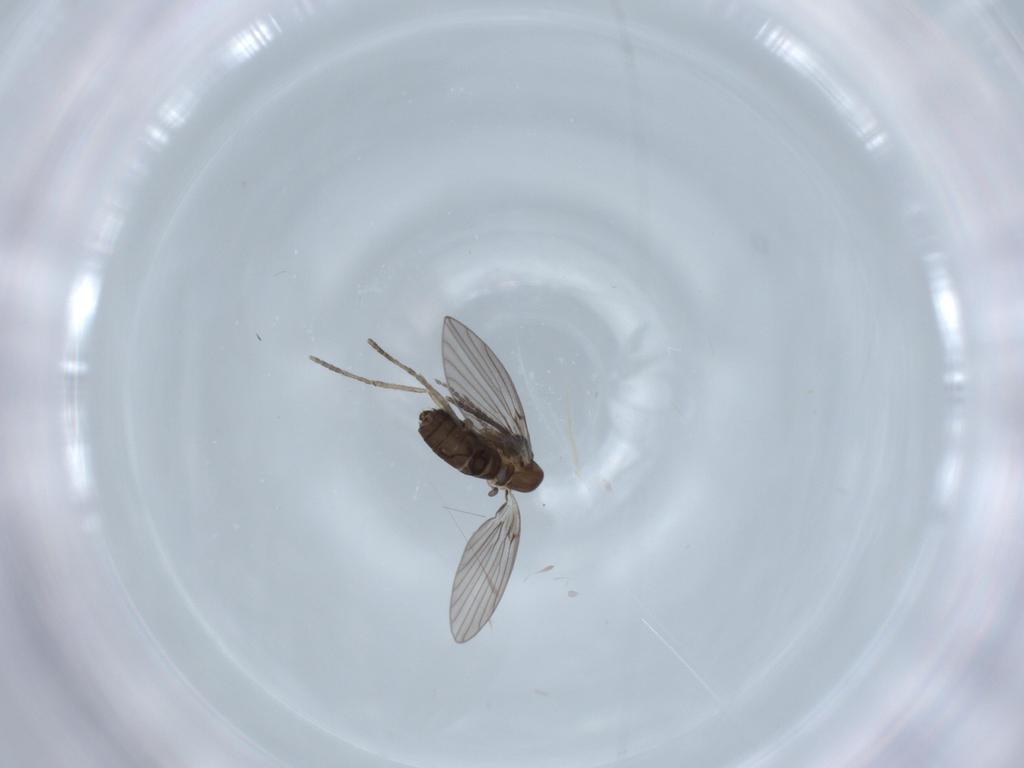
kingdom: Animalia
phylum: Arthropoda
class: Insecta
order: Diptera
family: Psychodidae
